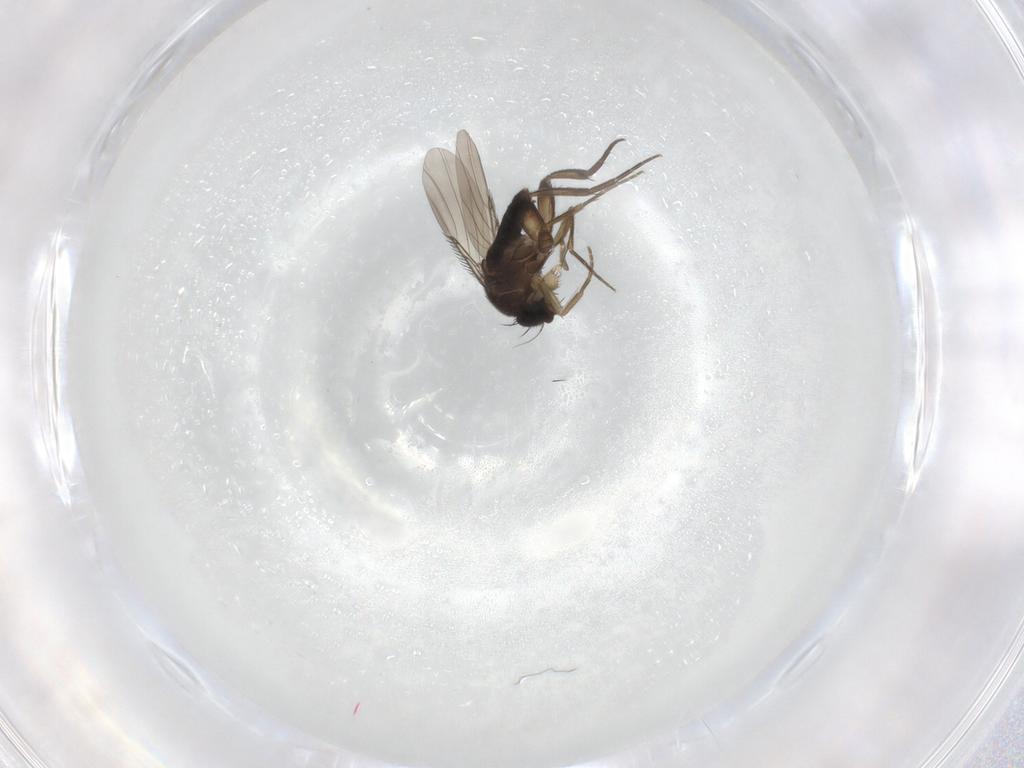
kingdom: Animalia
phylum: Arthropoda
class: Insecta
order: Diptera
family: Phoridae
